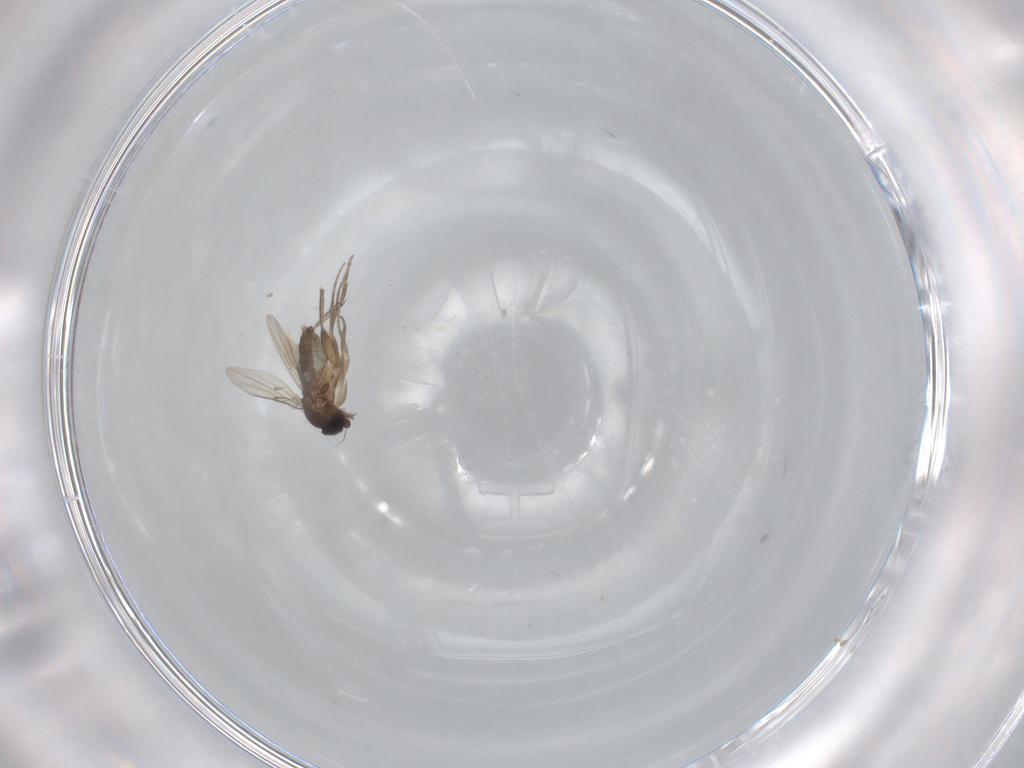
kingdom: Animalia
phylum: Arthropoda
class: Insecta
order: Diptera
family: Phoridae
